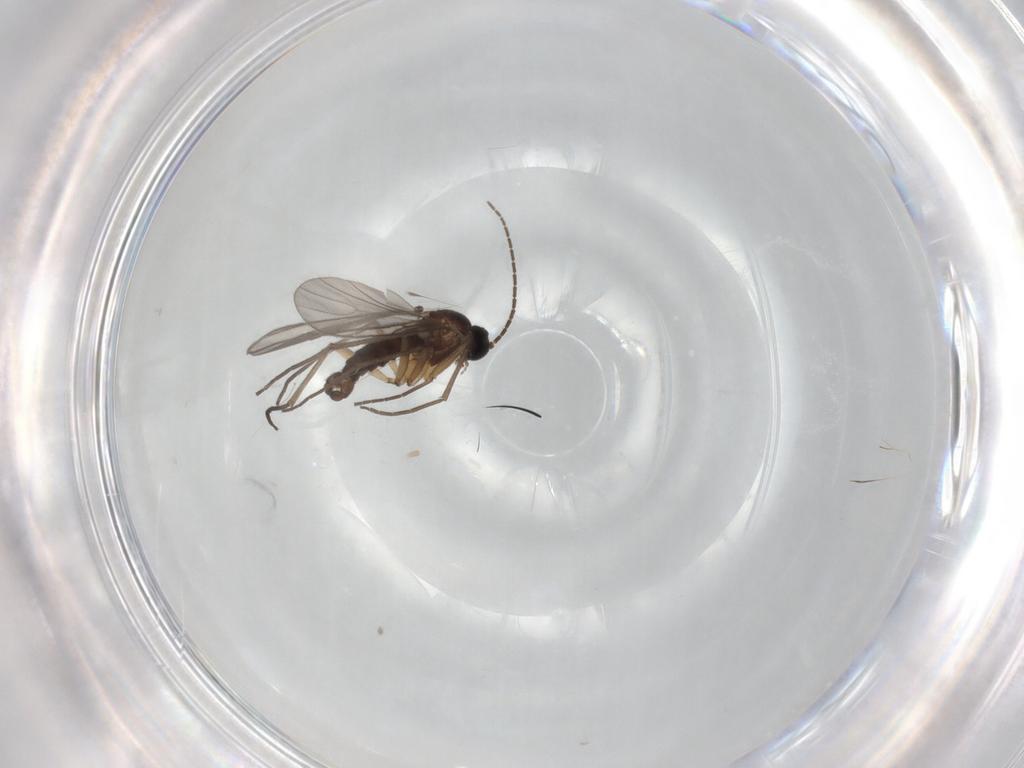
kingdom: Animalia
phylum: Arthropoda
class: Insecta
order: Diptera
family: Sciaridae
